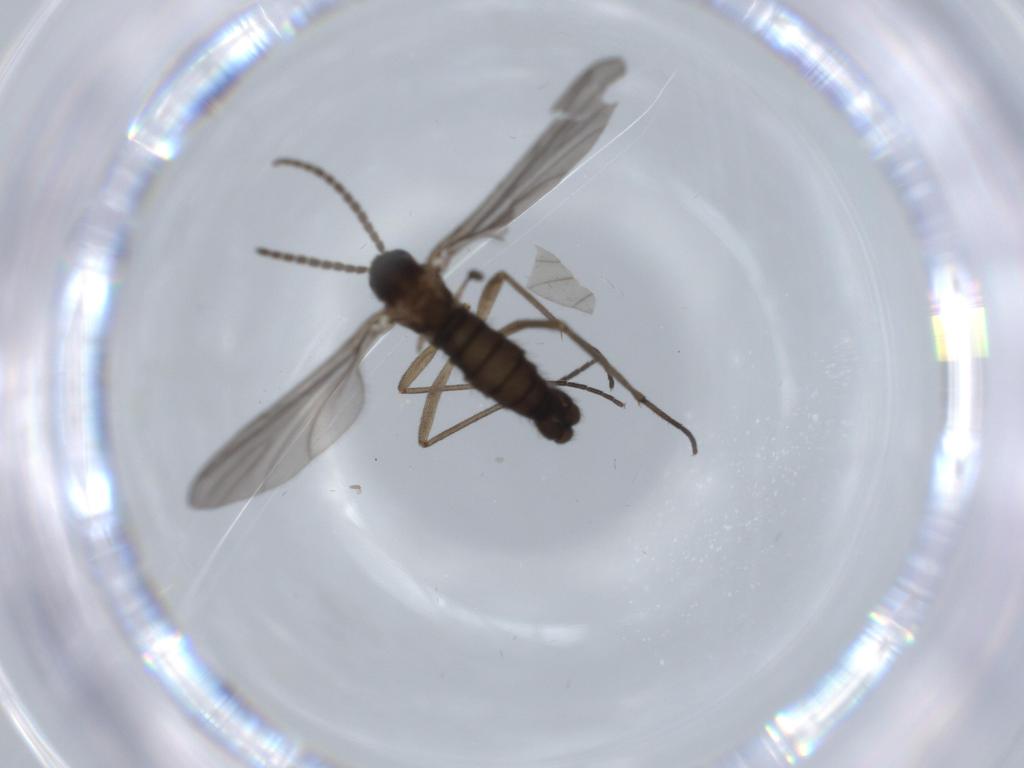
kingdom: Animalia
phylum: Arthropoda
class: Insecta
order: Diptera
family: Sciaridae
